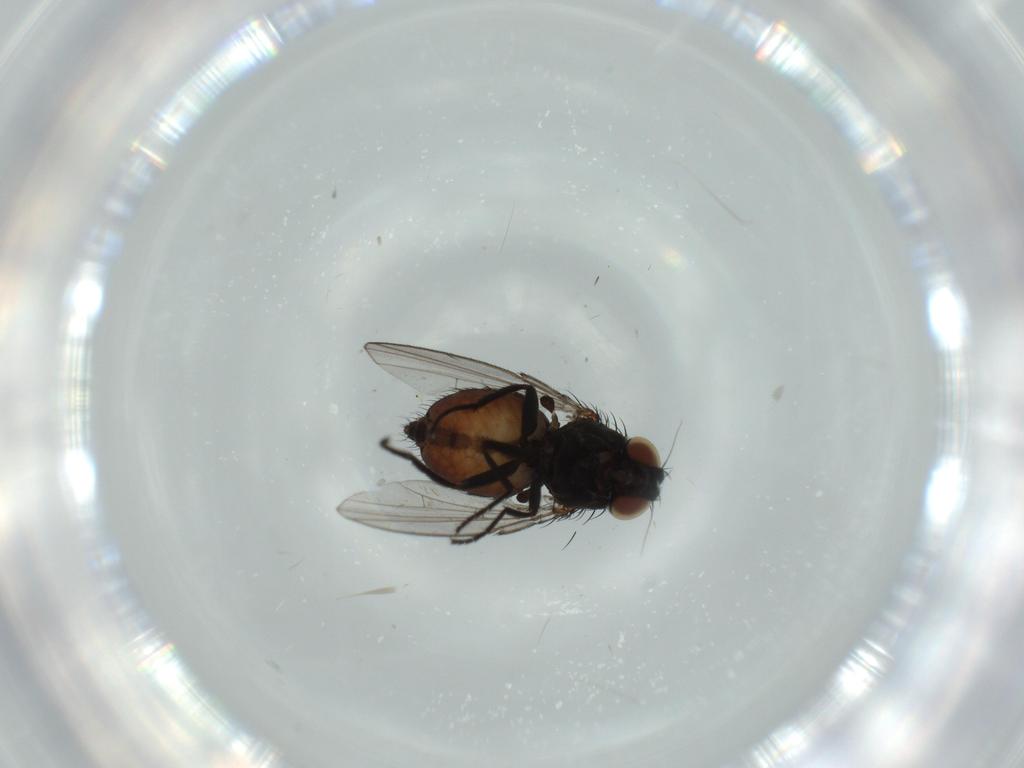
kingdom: Animalia
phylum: Arthropoda
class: Insecta
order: Diptera
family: Milichiidae
